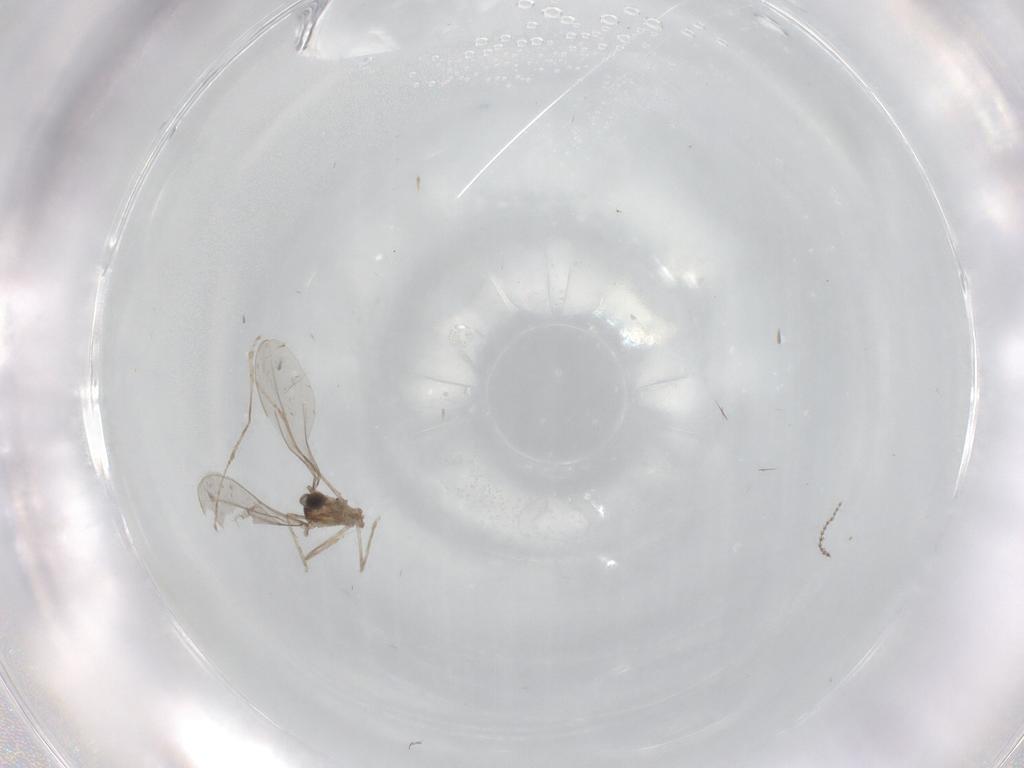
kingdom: Animalia
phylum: Arthropoda
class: Insecta
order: Diptera
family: Cecidomyiidae
